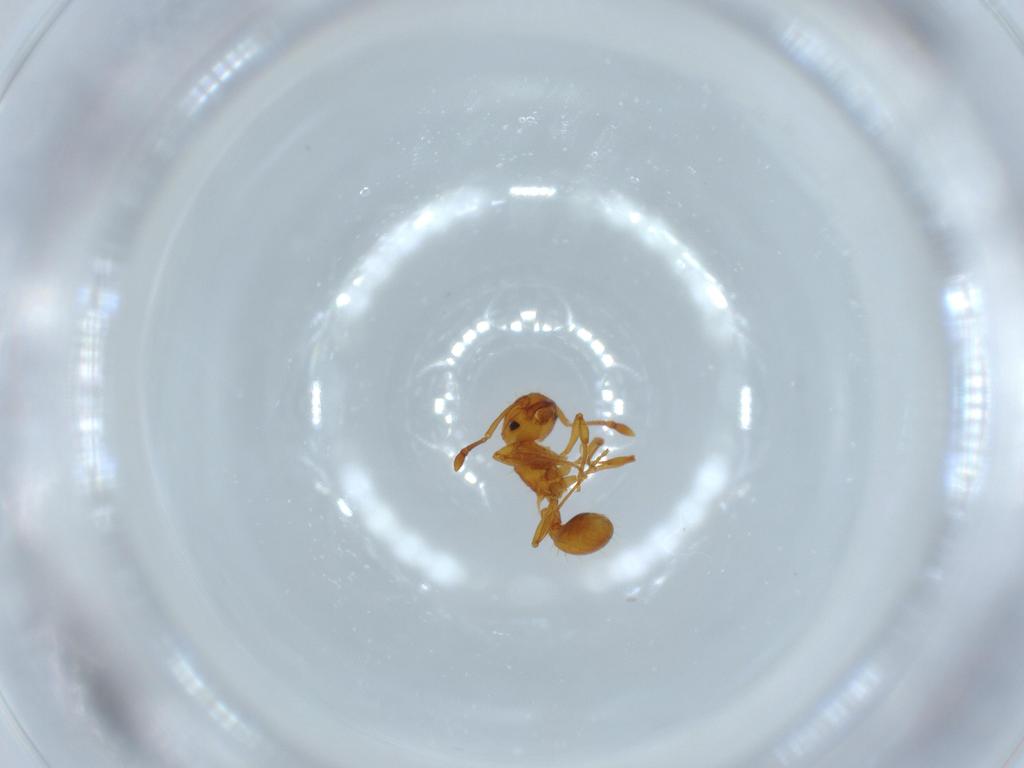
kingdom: Animalia
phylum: Arthropoda
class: Insecta
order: Hymenoptera
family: Formicidae
